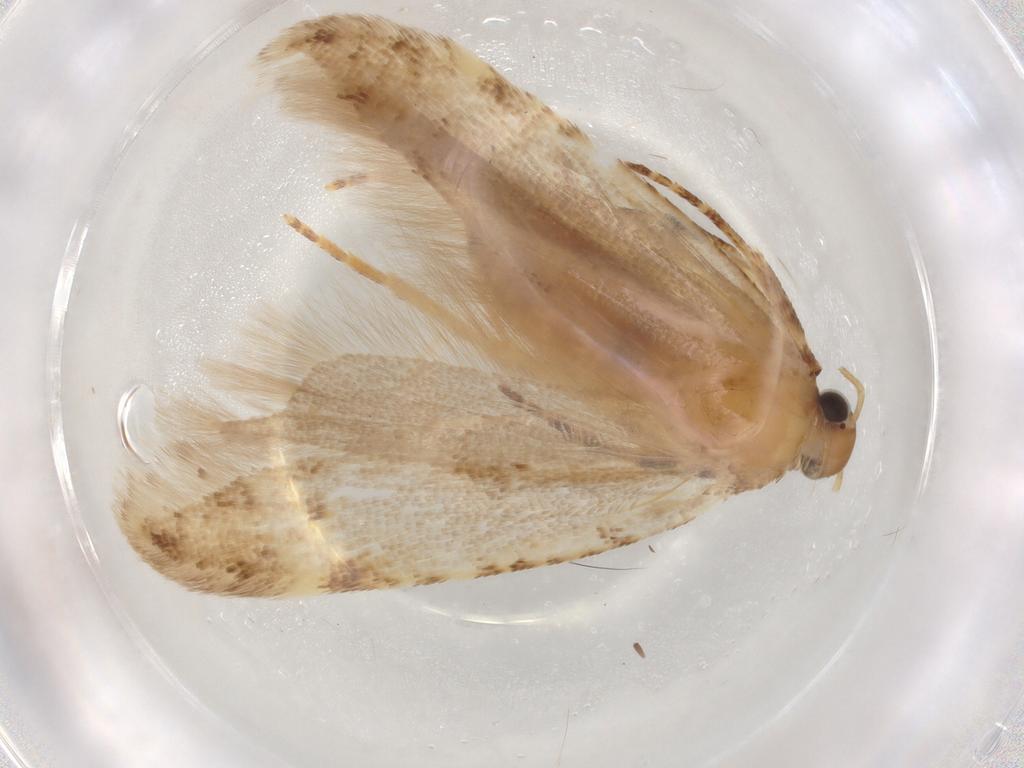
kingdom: Animalia
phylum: Arthropoda
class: Insecta
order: Lepidoptera
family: Gelechiidae
